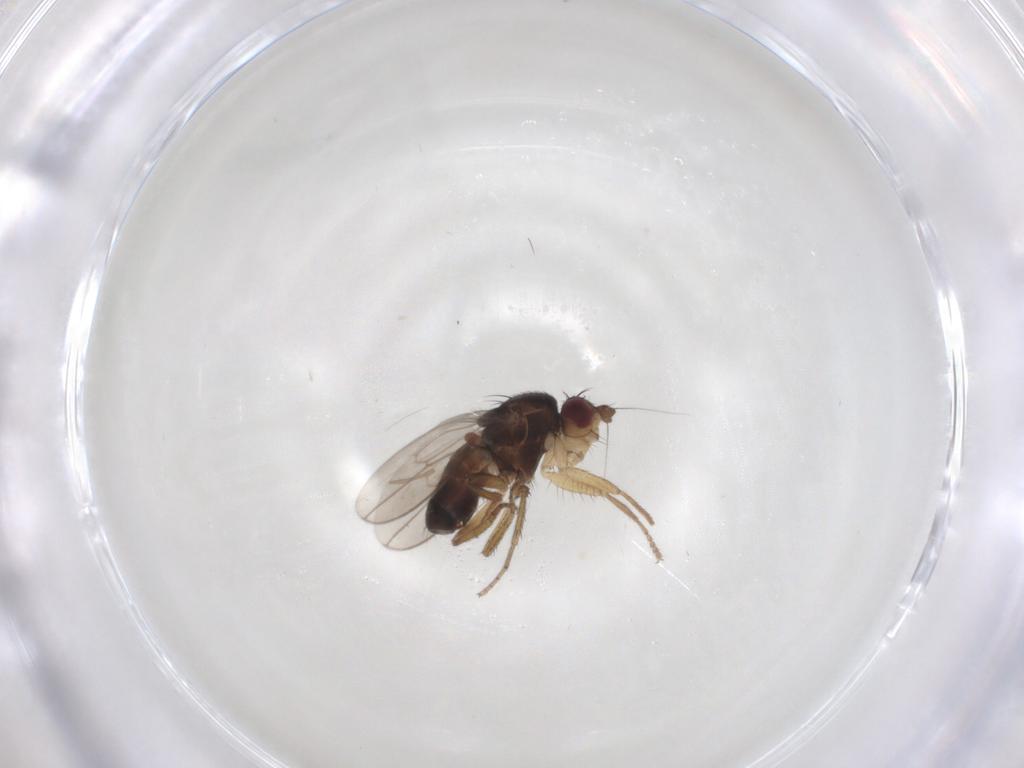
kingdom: Animalia
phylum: Arthropoda
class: Insecta
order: Diptera
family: Sphaeroceridae
